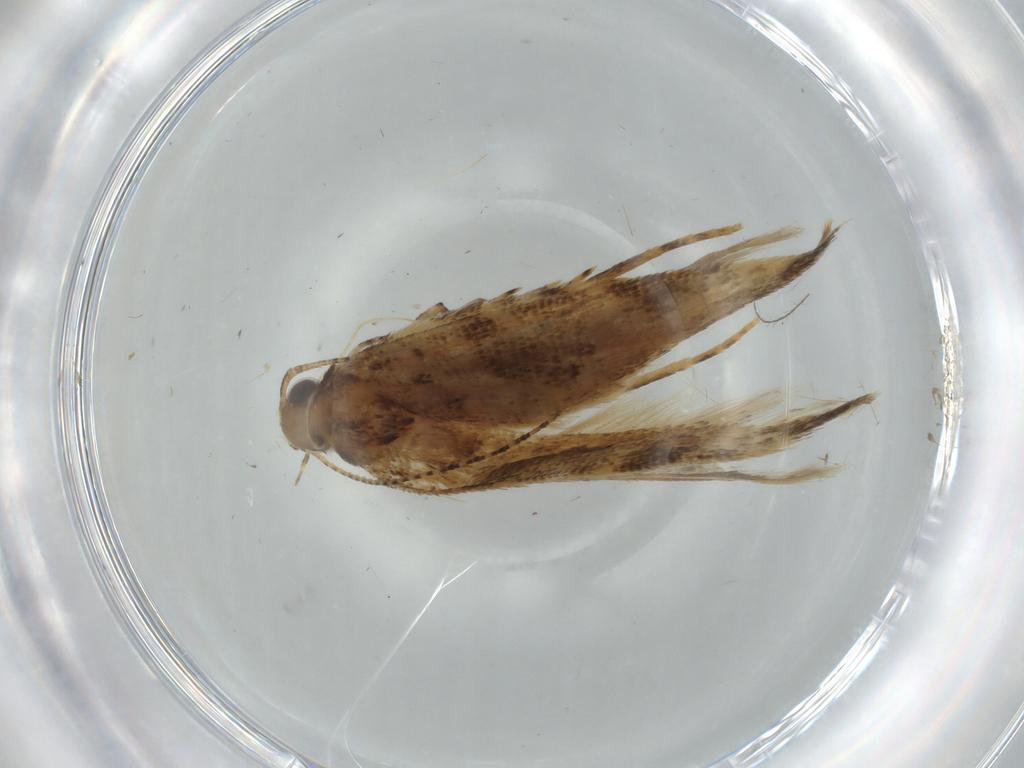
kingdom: Animalia
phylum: Arthropoda
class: Insecta
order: Lepidoptera
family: Gelechiidae
